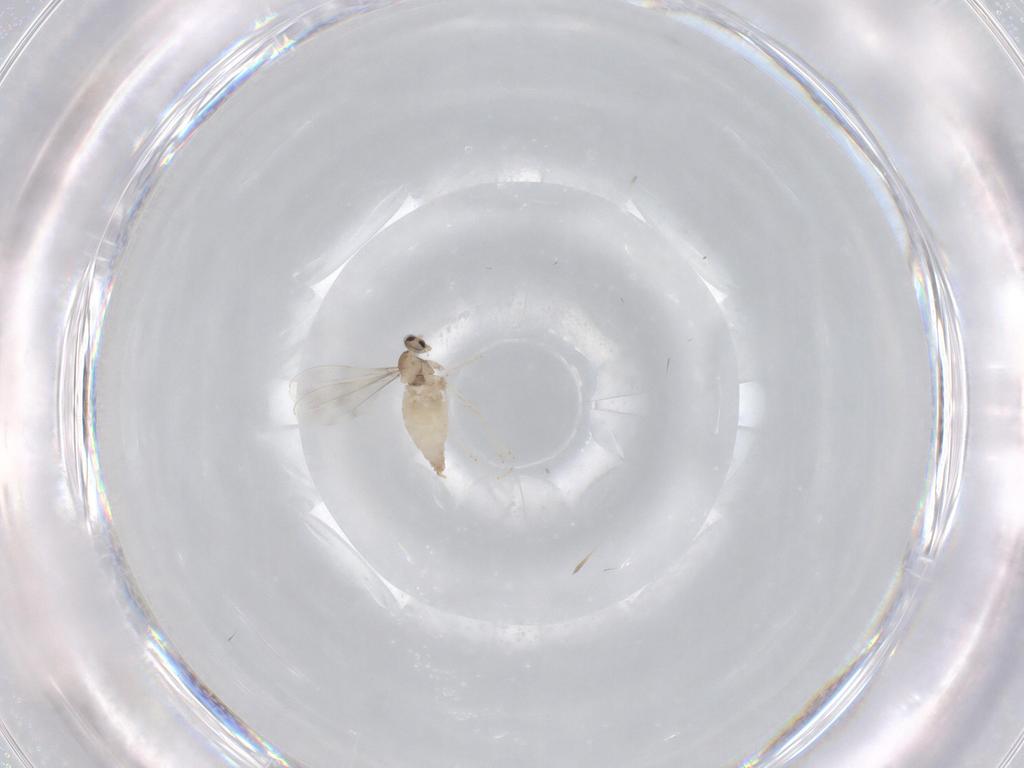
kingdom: Animalia
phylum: Arthropoda
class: Insecta
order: Diptera
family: Cecidomyiidae
